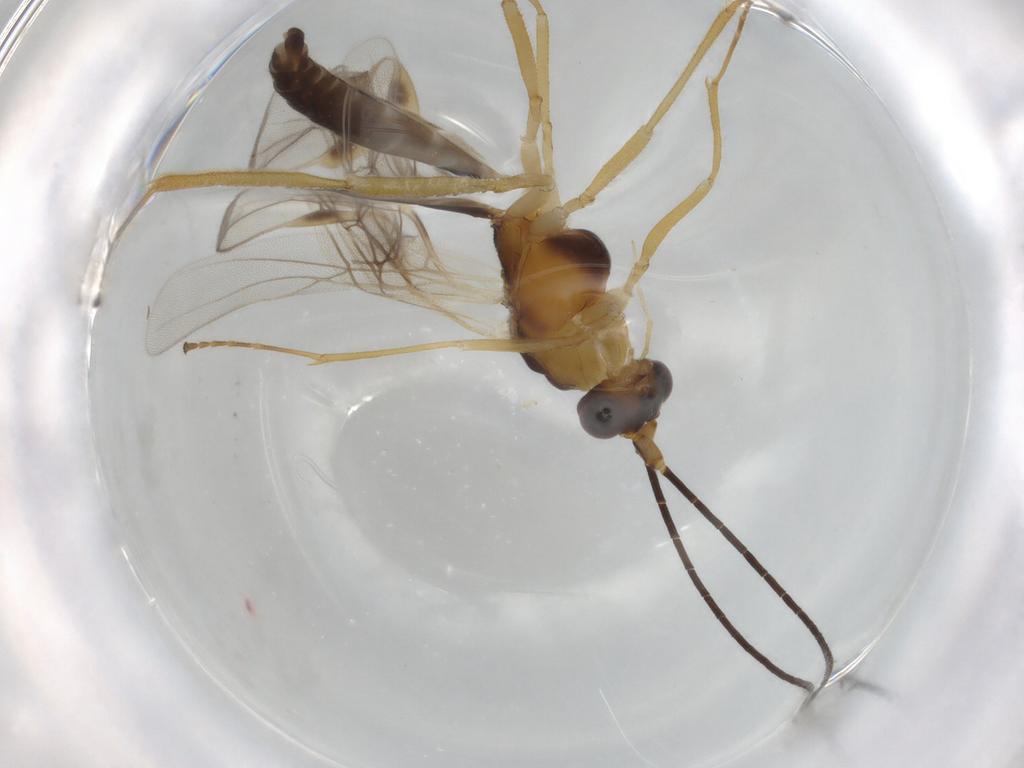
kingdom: Animalia
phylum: Arthropoda
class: Insecta
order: Hymenoptera
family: Braconidae
